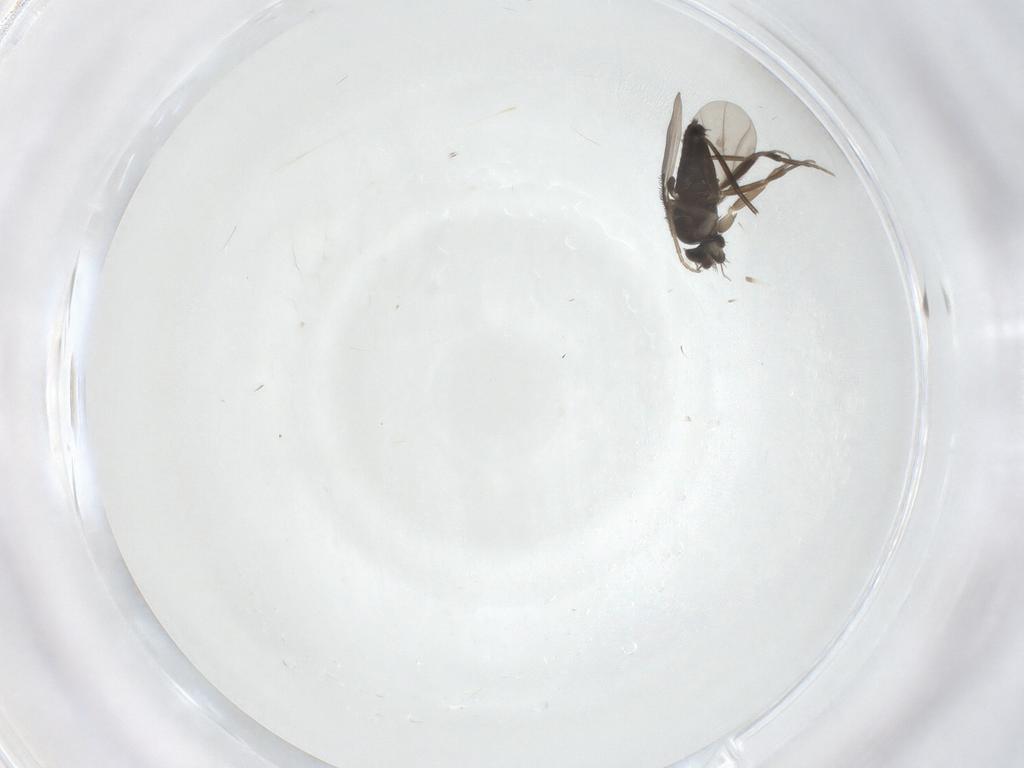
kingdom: Animalia
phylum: Arthropoda
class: Insecta
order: Diptera
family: Phoridae
